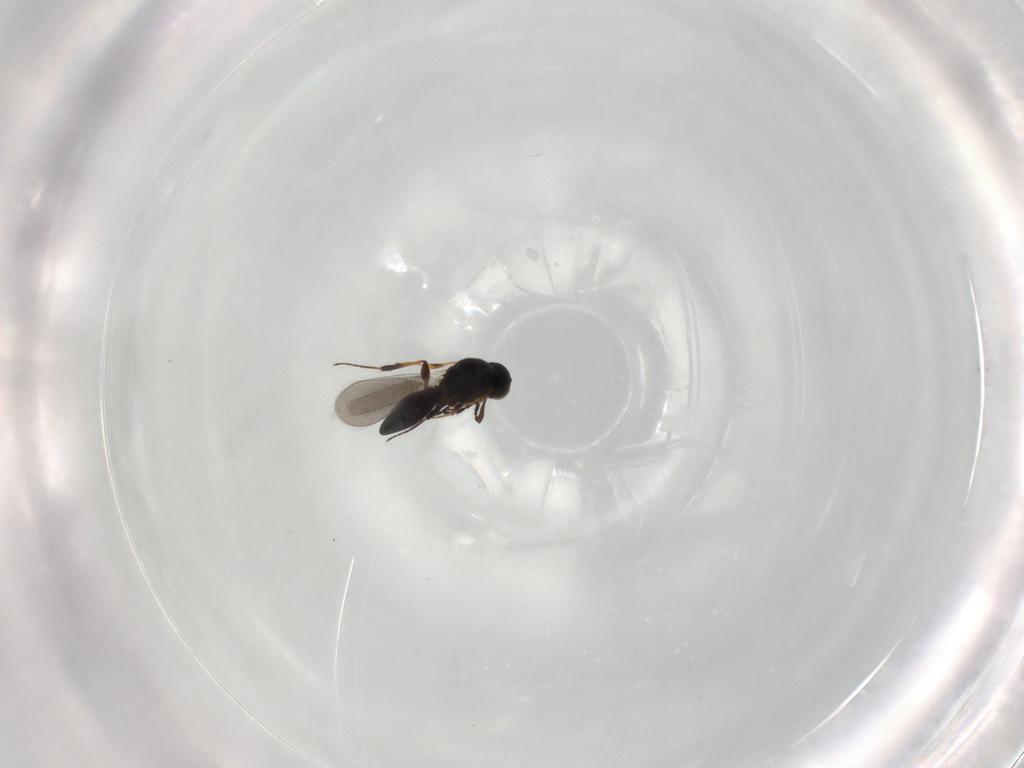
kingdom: Animalia
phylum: Arthropoda
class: Insecta
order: Hymenoptera
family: Platygastridae
